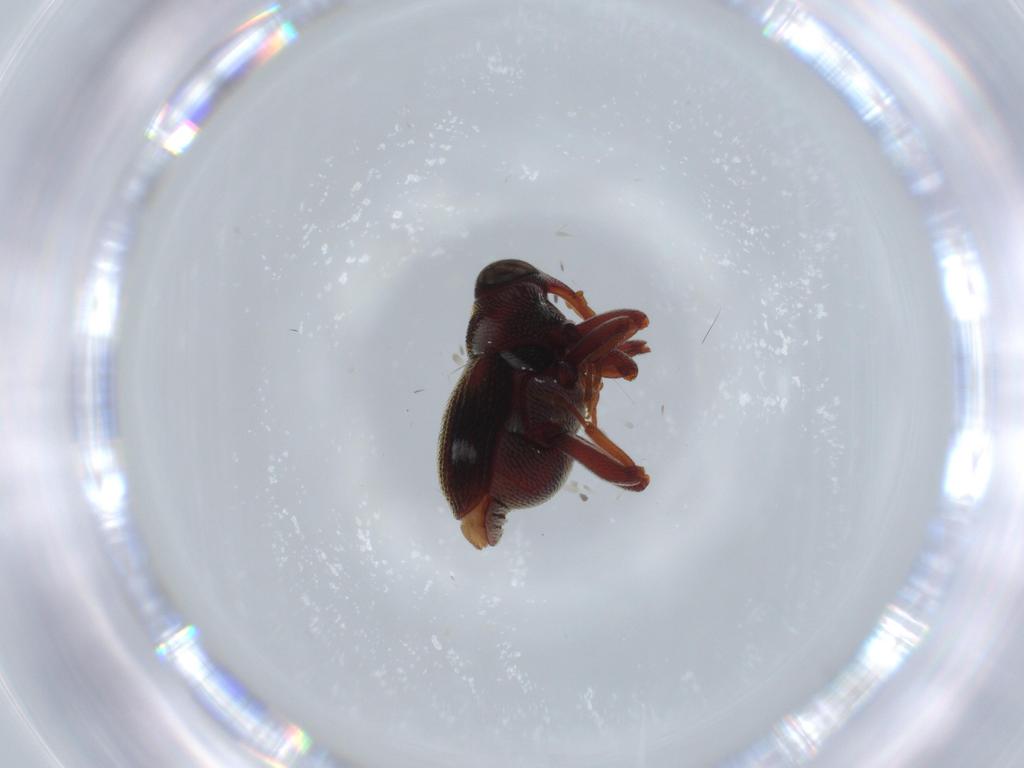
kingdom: Animalia
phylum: Arthropoda
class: Insecta
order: Coleoptera
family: Curculionidae
